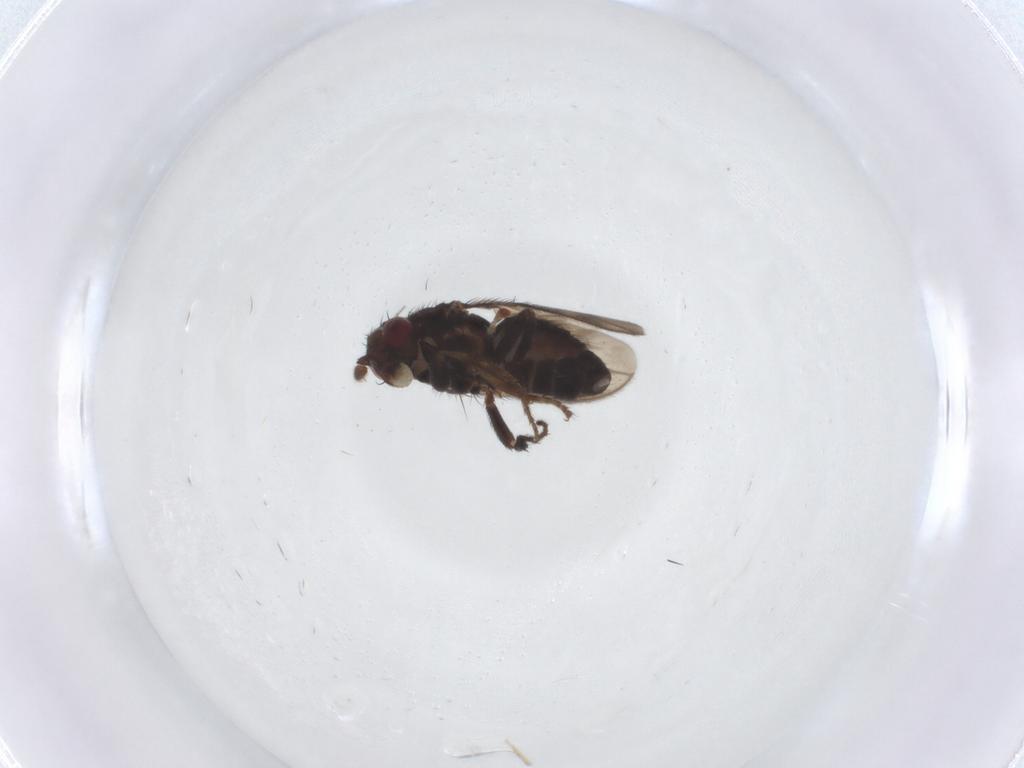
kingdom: Animalia
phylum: Arthropoda
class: Insecta
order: Diptera
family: Sphaeroceridae
